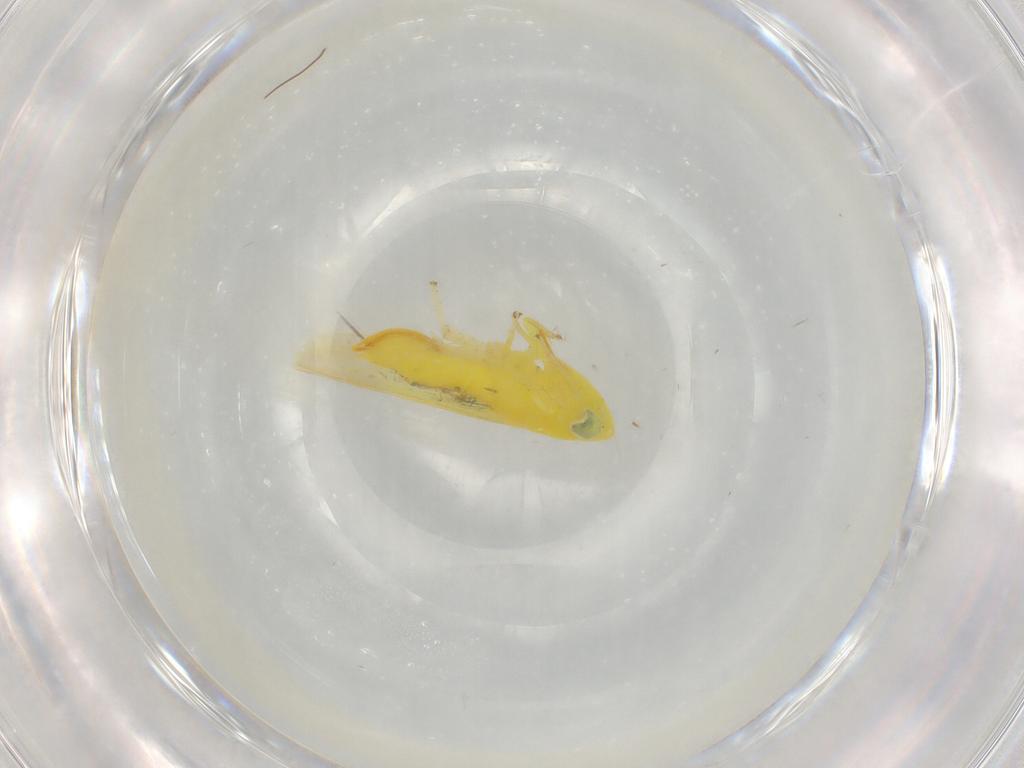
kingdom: Animalia
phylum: Arthropoda
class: Insecta
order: Hemiptera
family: Cicadellidae
